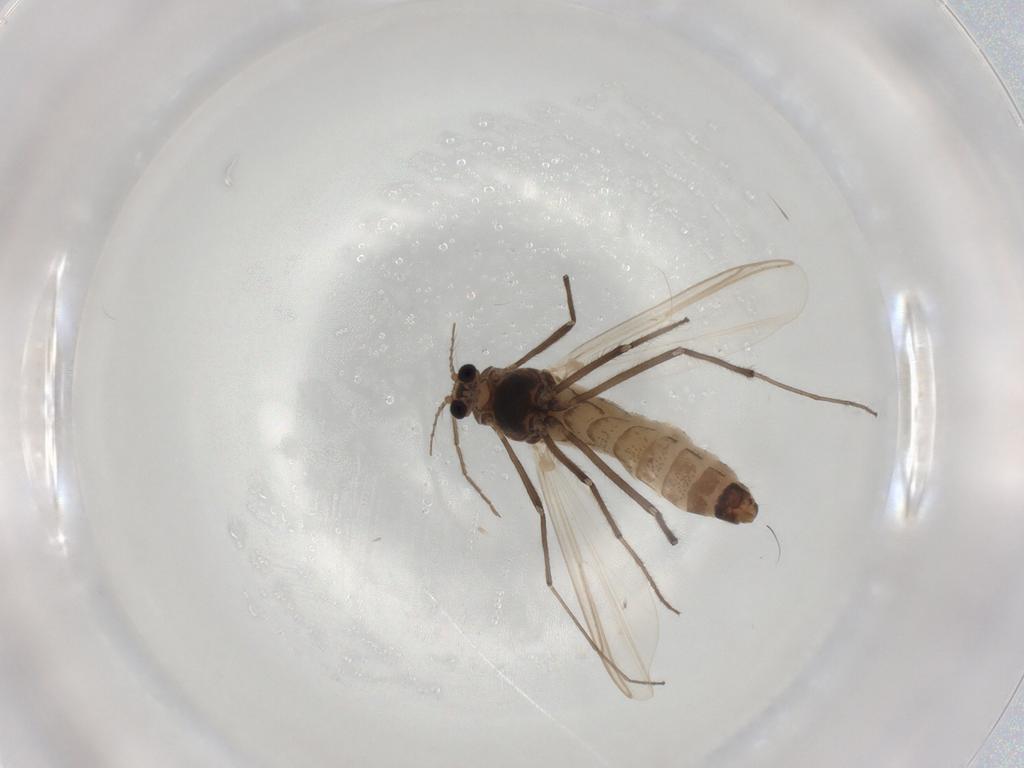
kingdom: Animalia
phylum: Arthropoda
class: Insecta
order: Diptera
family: Chironomidae
